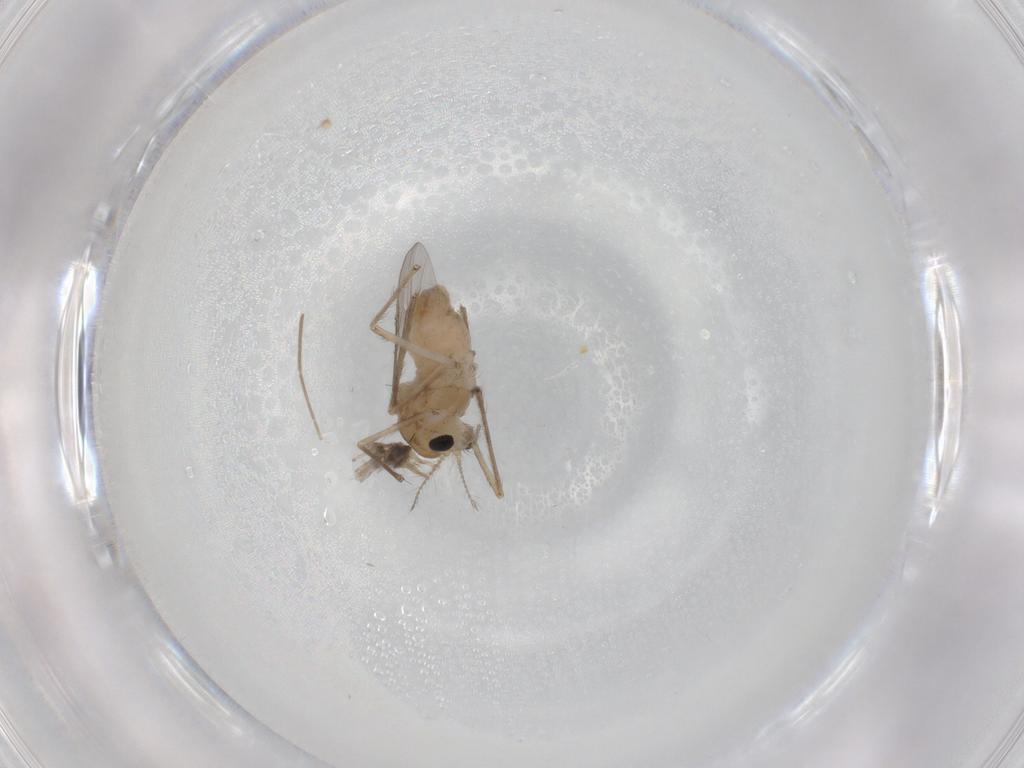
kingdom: Animalia
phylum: Arthropoda
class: Insecta
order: Diptera
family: Chironomidae
